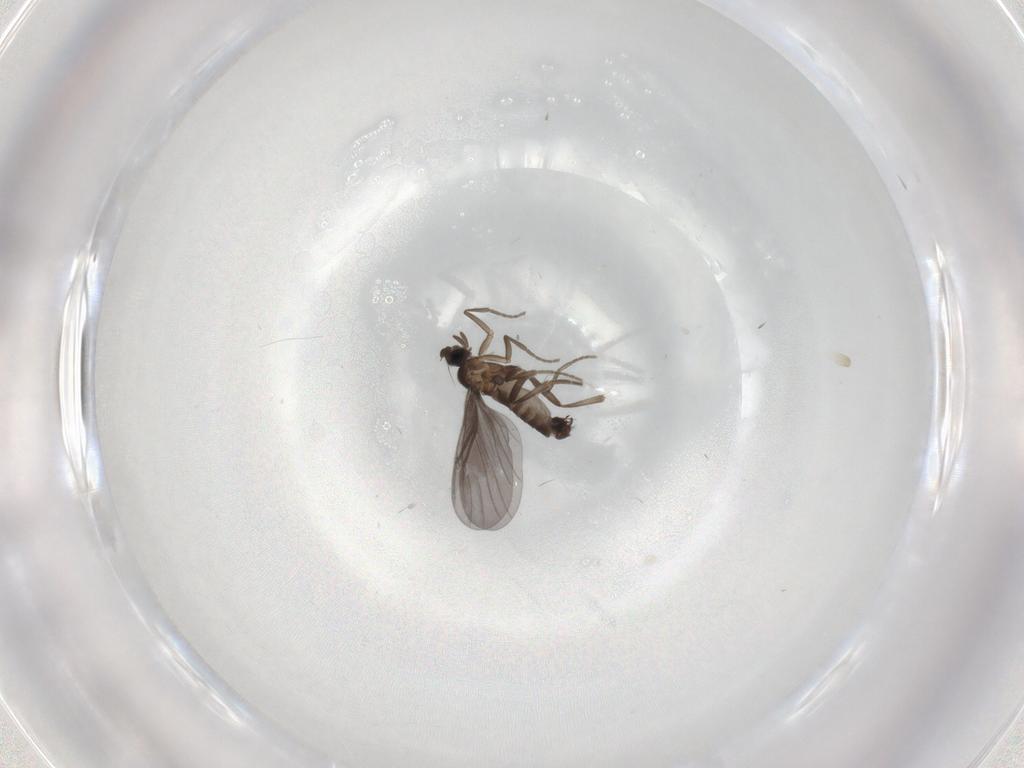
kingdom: Animalia
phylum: Arthropoda
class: Insecta
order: Diptera
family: Phoridae
